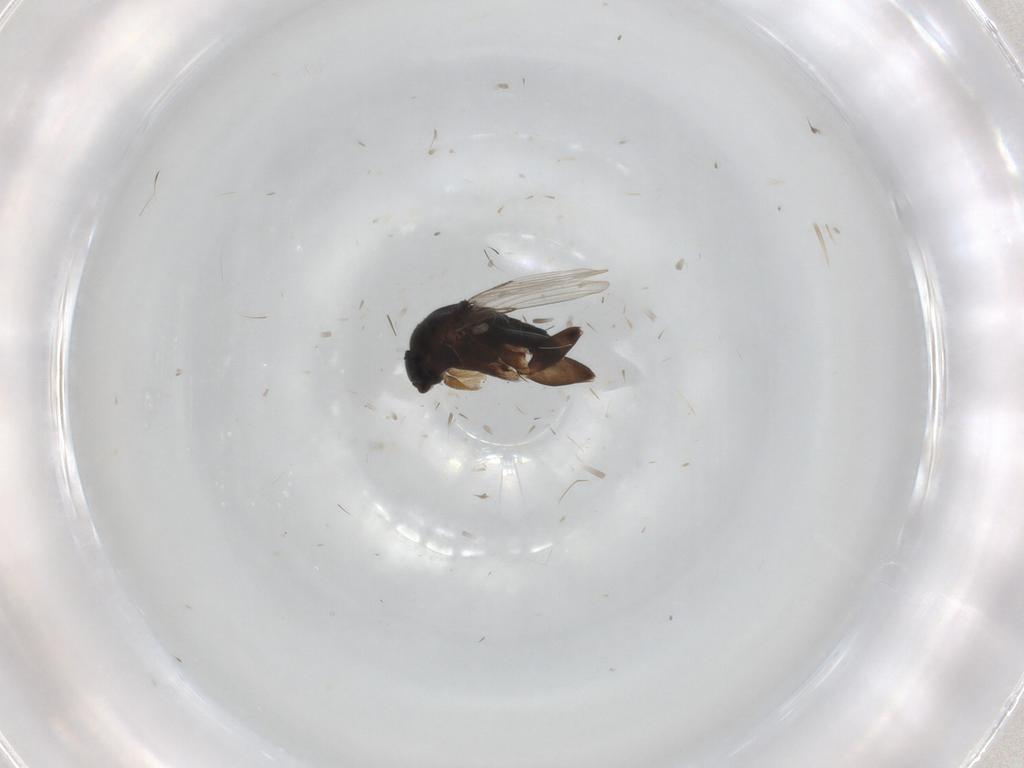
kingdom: Animalia
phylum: Arthropoda
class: Insecta
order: Diptera
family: Phoridae
